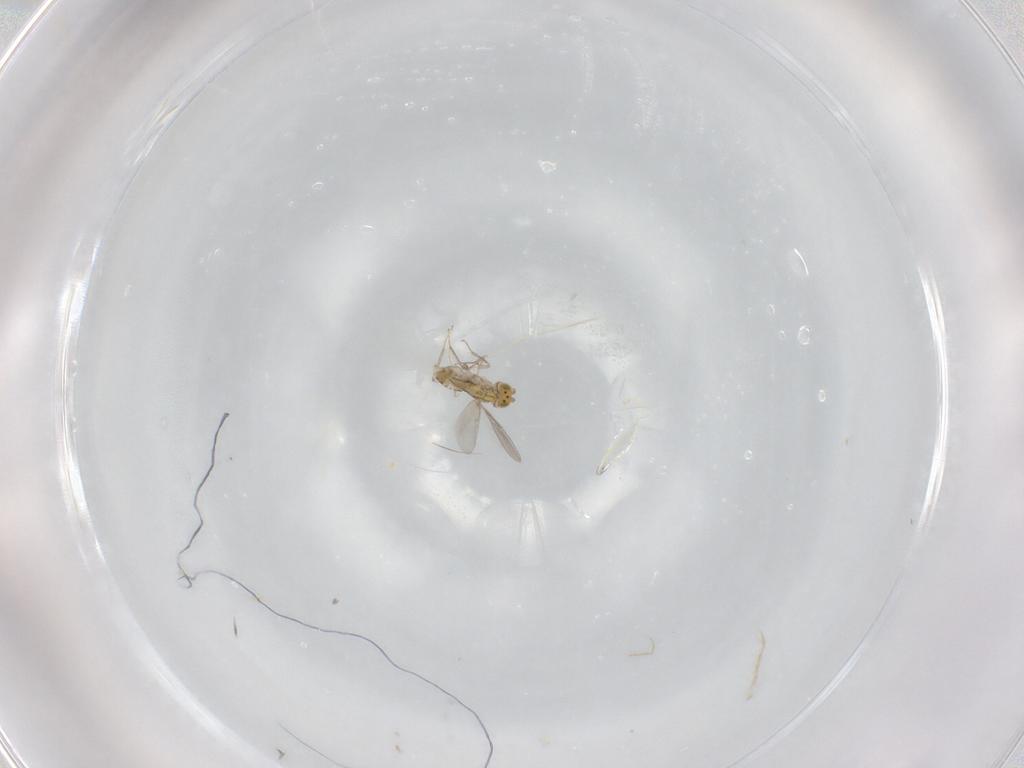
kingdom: Animalia
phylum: Arthropoda
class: Insecta
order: Hymenoptera
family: Signiphoridae
